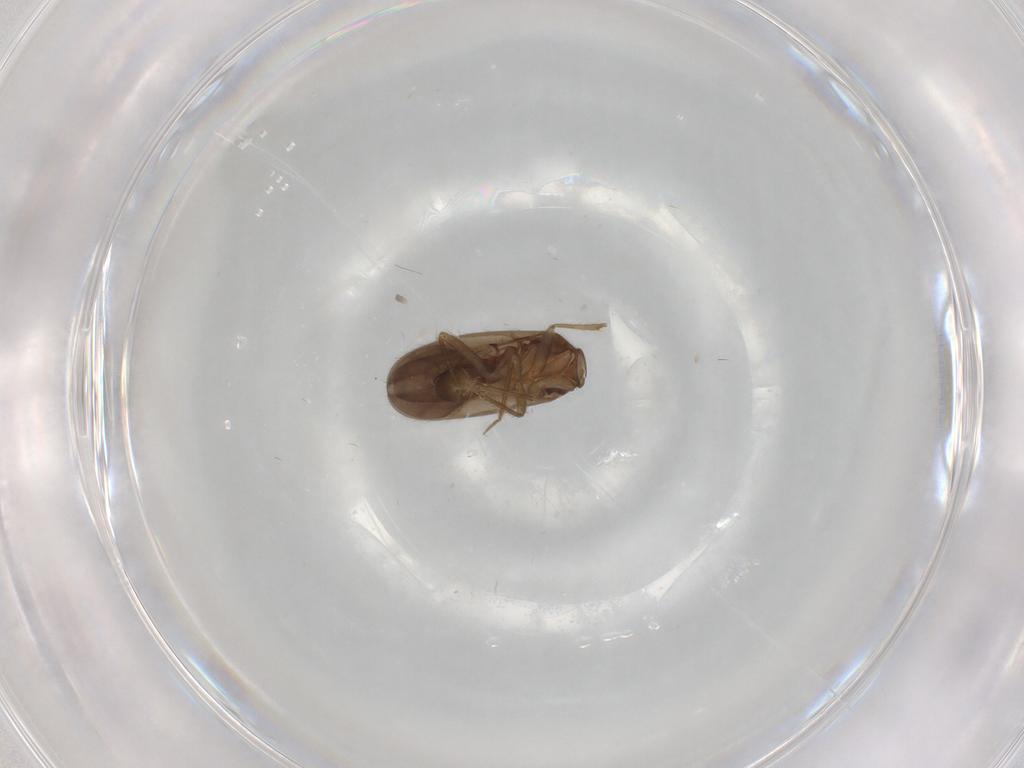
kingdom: Animalia
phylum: Arthropoda
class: Insecta
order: Hemiptera
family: Ceratocombidae
